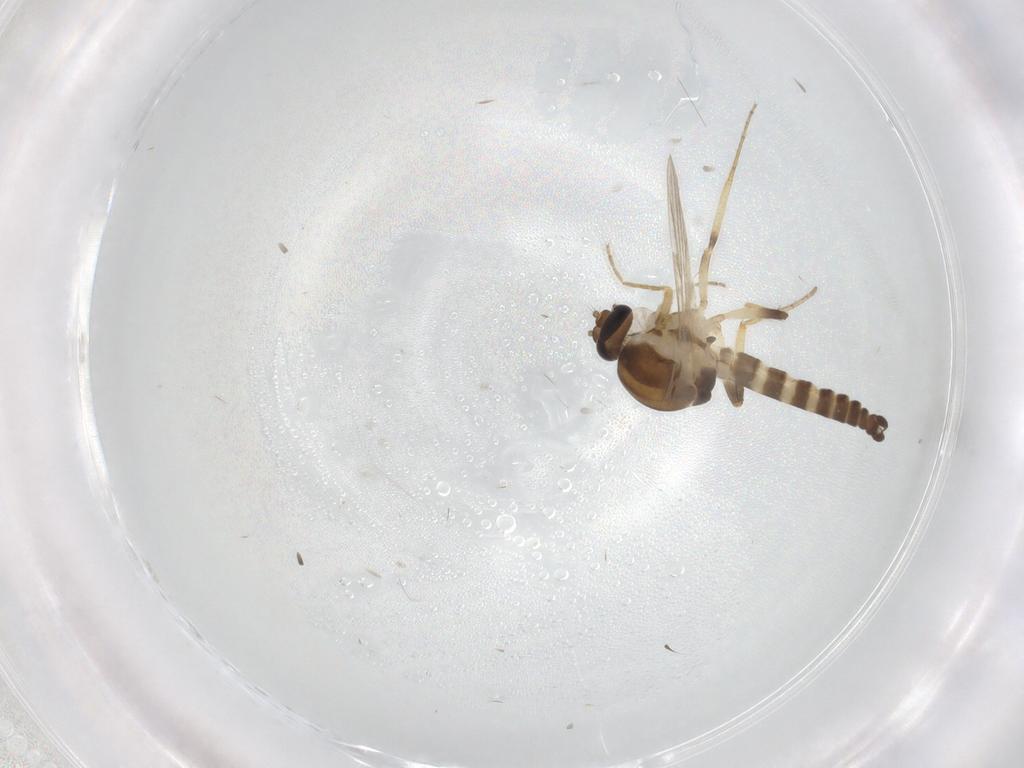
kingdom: Animalia
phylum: Arthropoda
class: Insecta
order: Diptera
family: Ceratopogonidae
